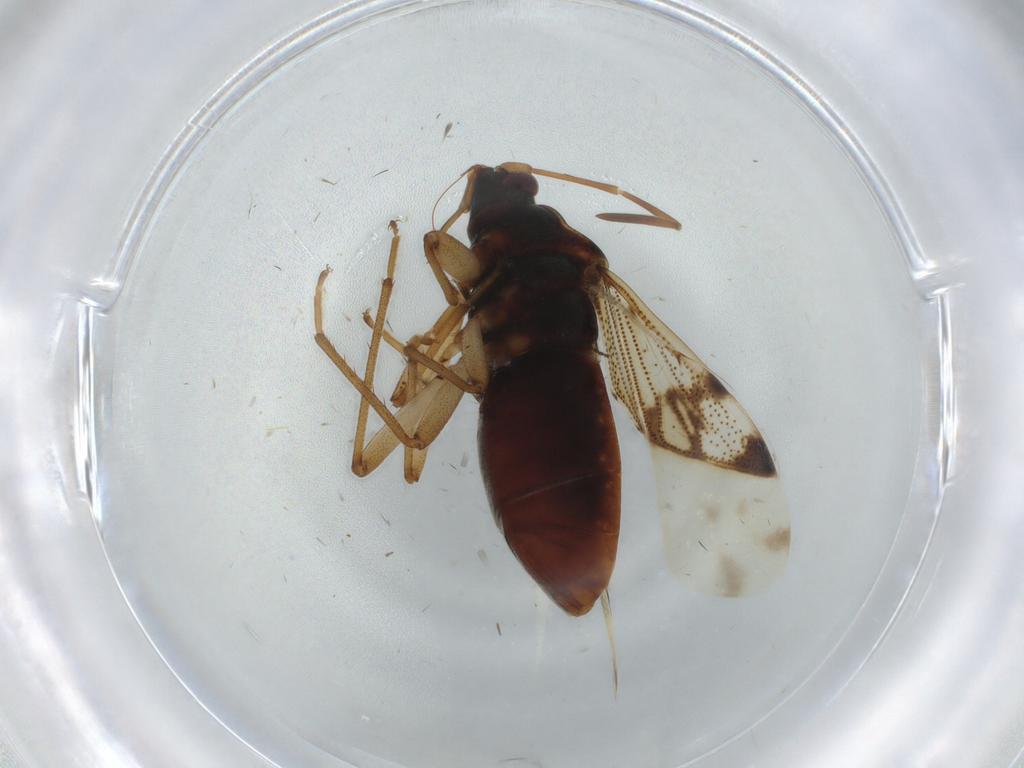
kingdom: Animalia
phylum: Arthropoda
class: Insecta
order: Hemiptera
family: Rhyparochromidae
